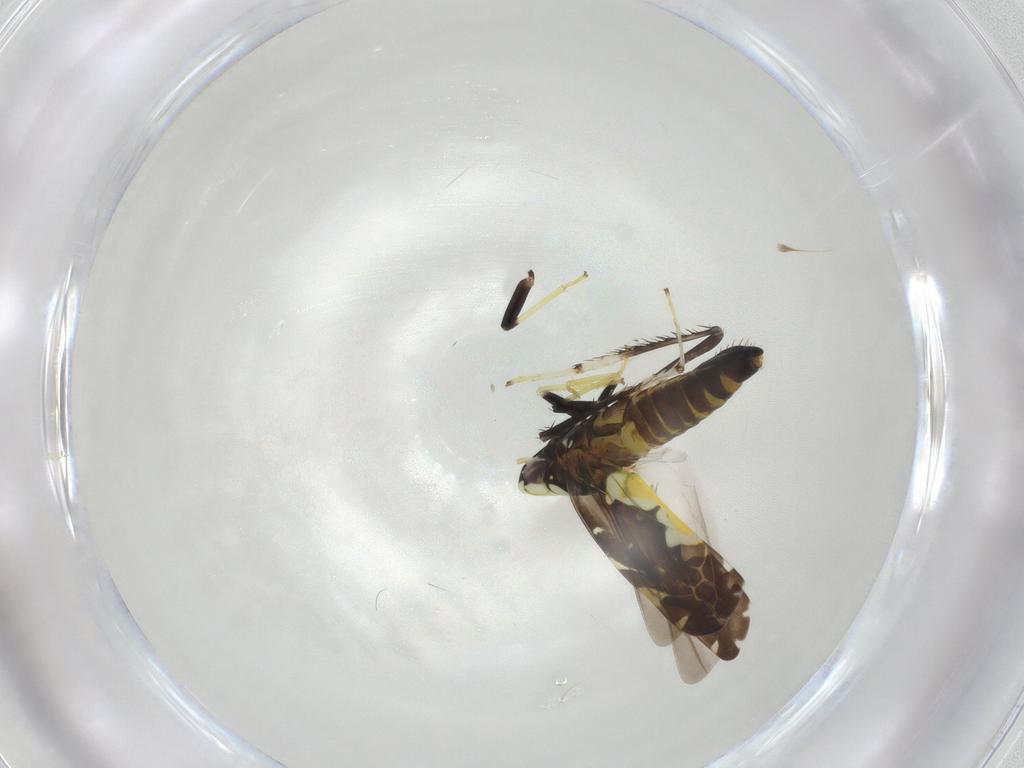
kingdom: Animalia
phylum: Arthropoda
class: Insecta
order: Hemiptera
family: Cicadellidae
